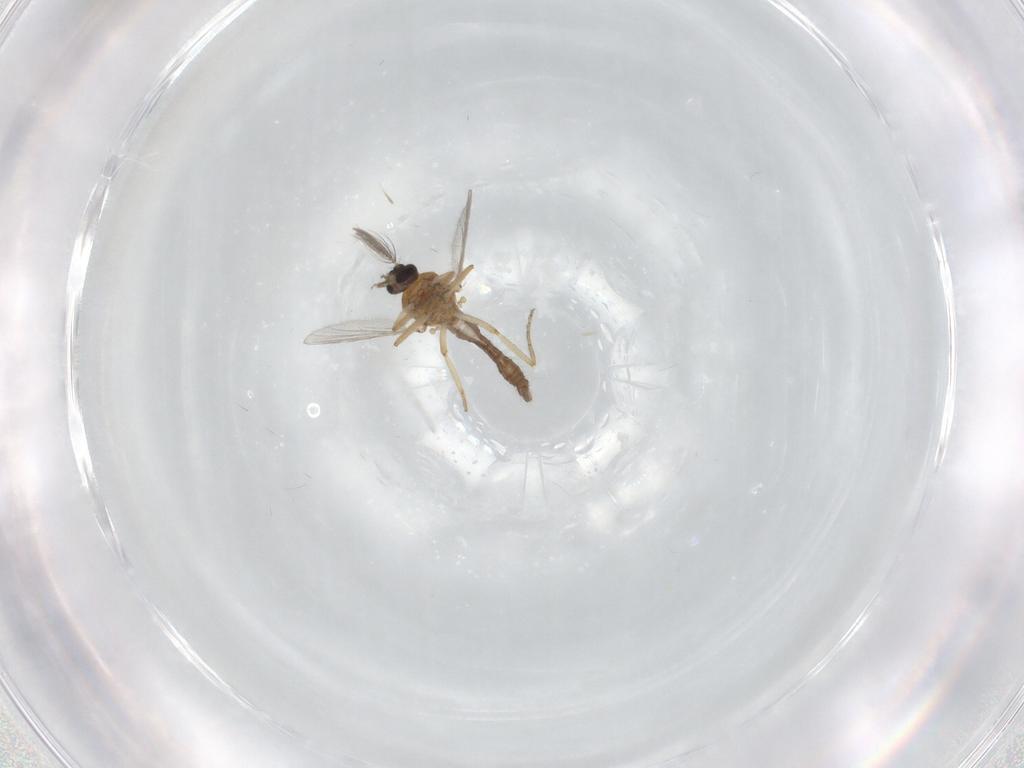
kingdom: Animalia
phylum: Arthropoda
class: Insecta
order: Diptera
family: Limoniidae
